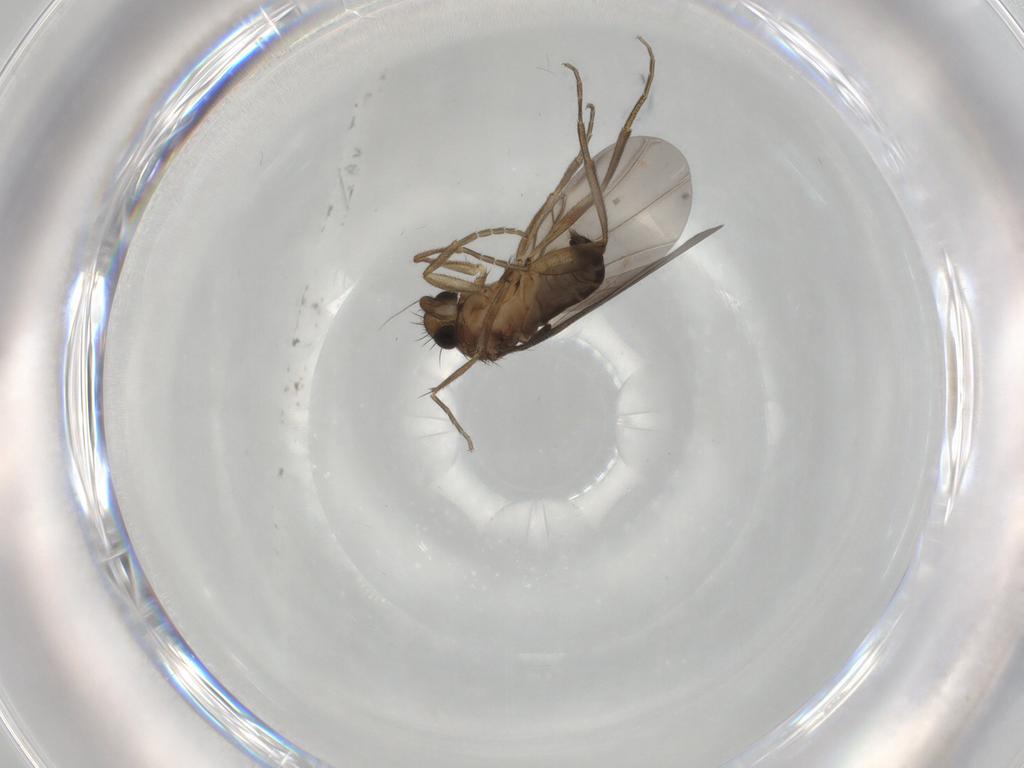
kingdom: Animalia
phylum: Arthropoda
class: Insecta
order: Diptera
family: Phoridae
